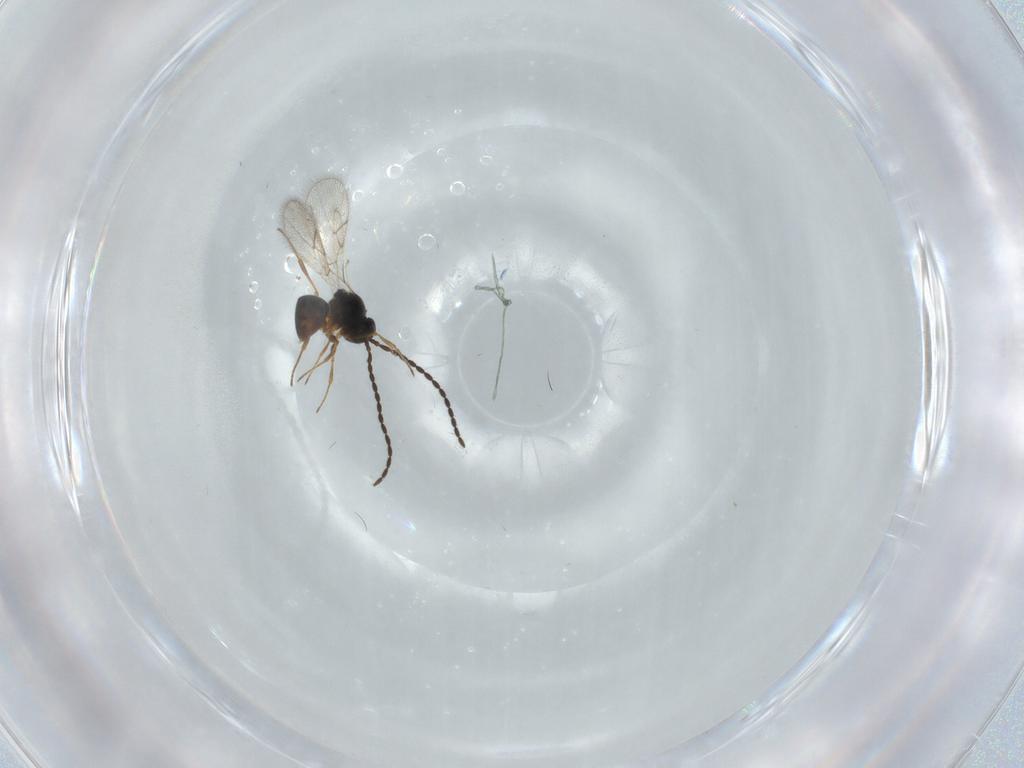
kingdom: Animalia
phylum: Arthropoda
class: Insecta
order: Hymenoptera
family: Figitidae
